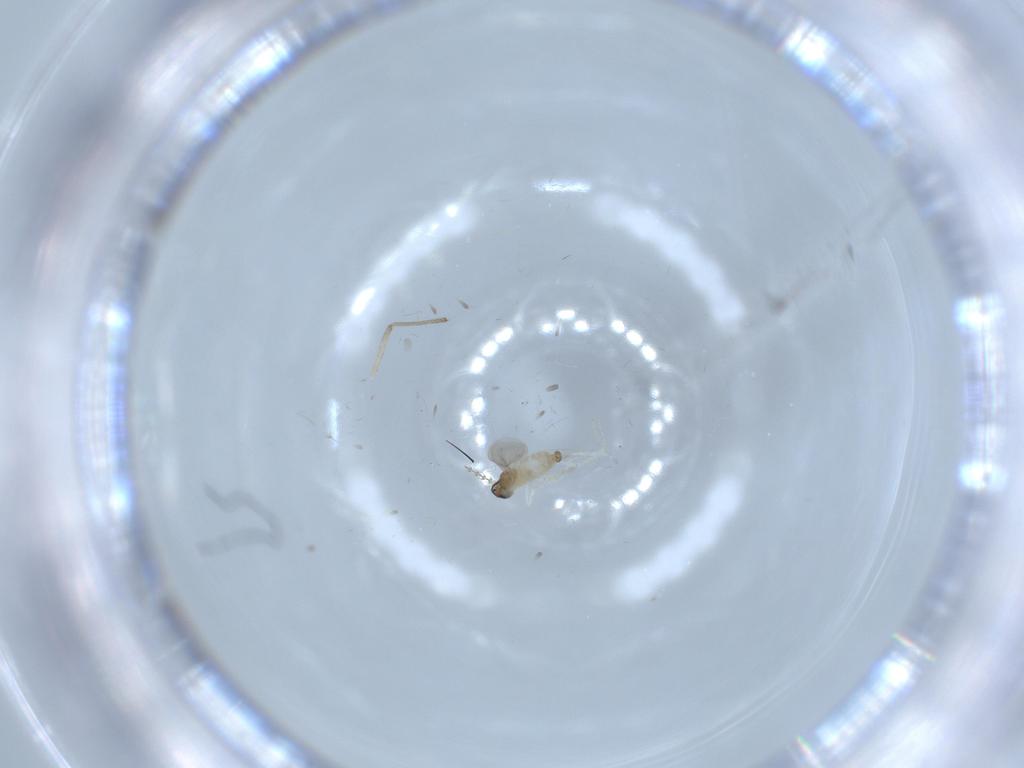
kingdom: Animalia
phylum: Arthropoda
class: Insecta
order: Diptera
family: Cecidomyiidae
